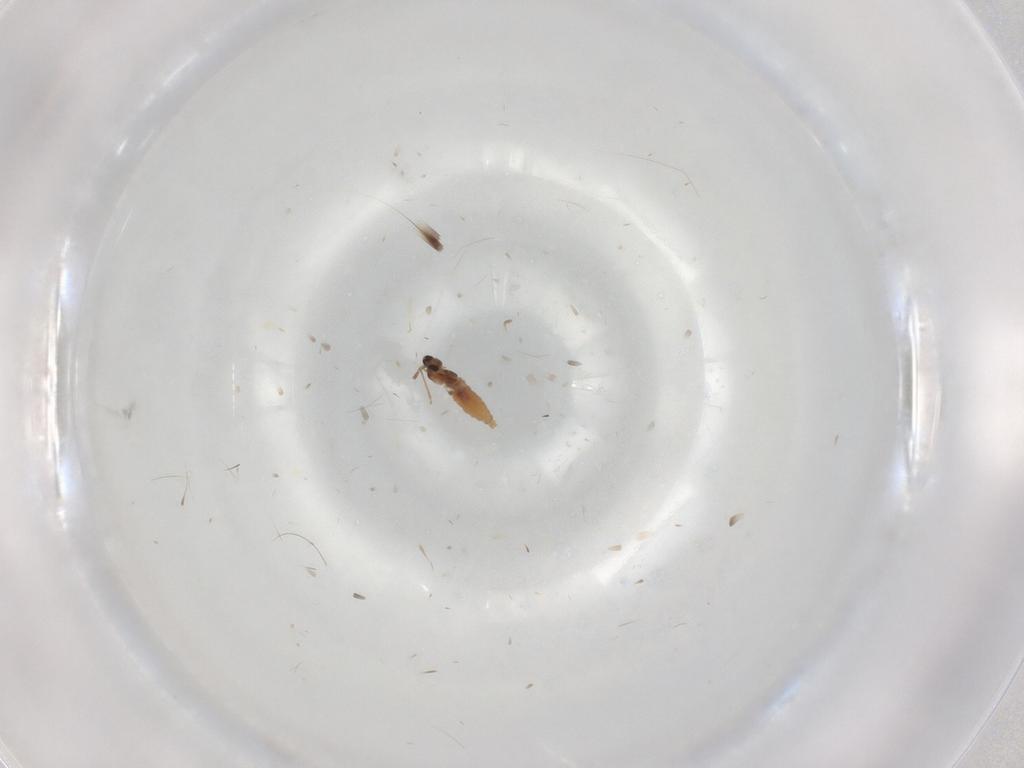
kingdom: Animalia
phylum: Arthropoda
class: Insecta
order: Diptera
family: Cecidomyiidae
